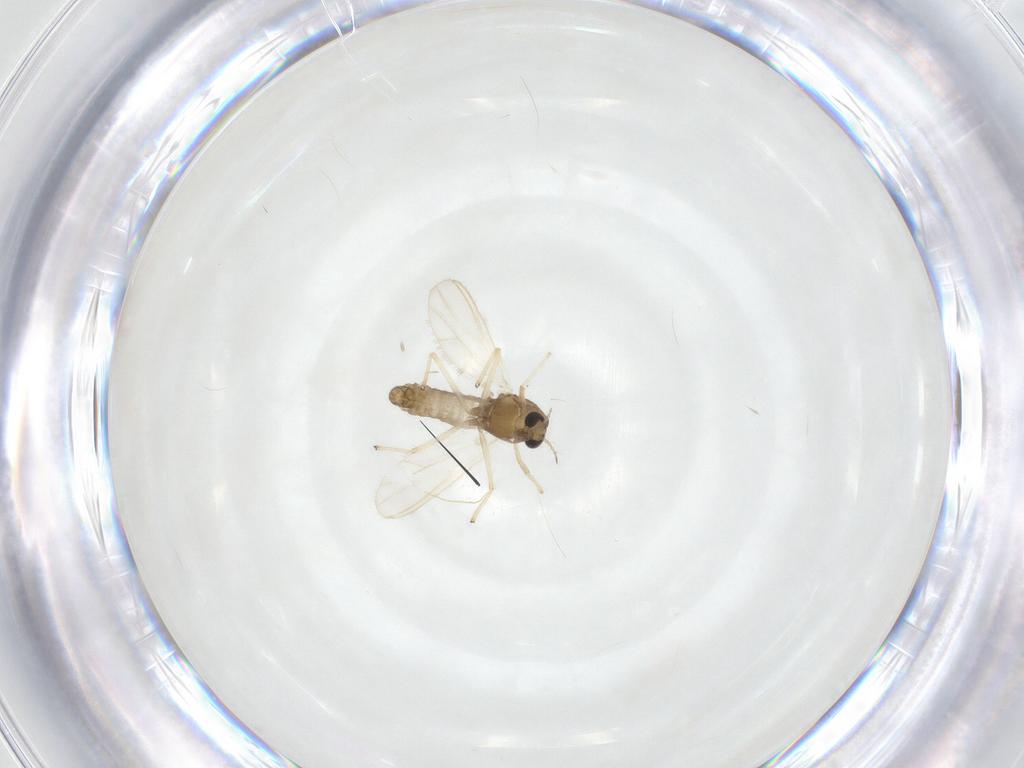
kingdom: Animalia
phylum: Arthropoda
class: Insecta
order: Diptera
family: Chironomidae
